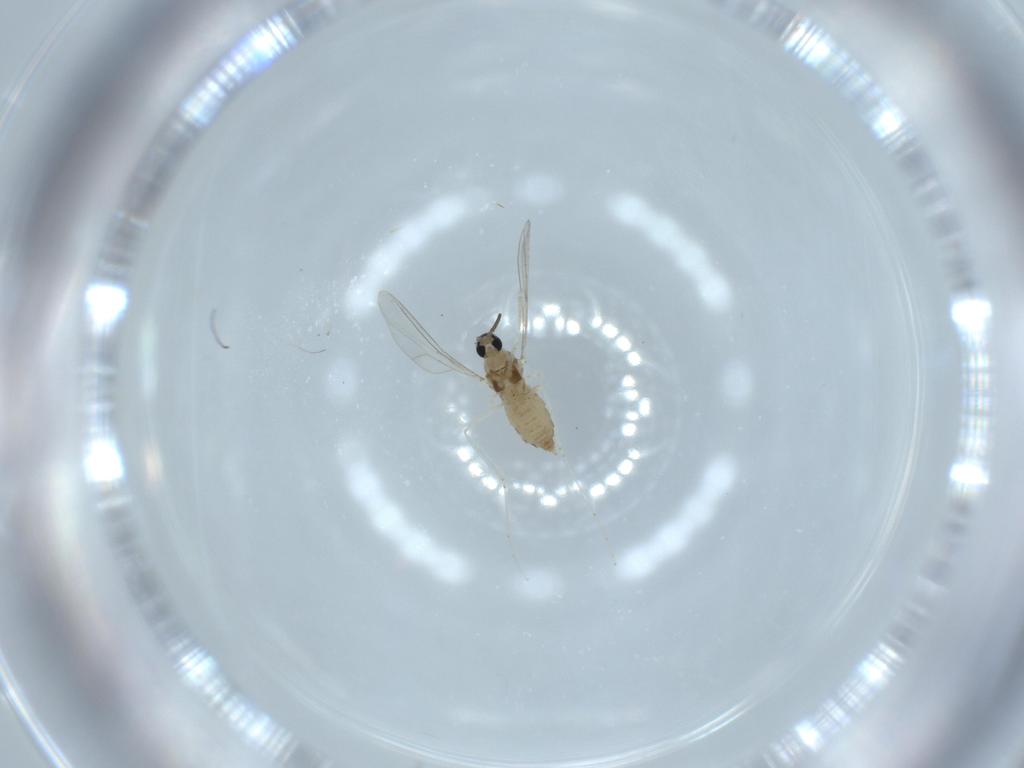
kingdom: Animalia
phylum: Arthropoda
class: Insecta
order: Diptera
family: Cecidomyiidae
